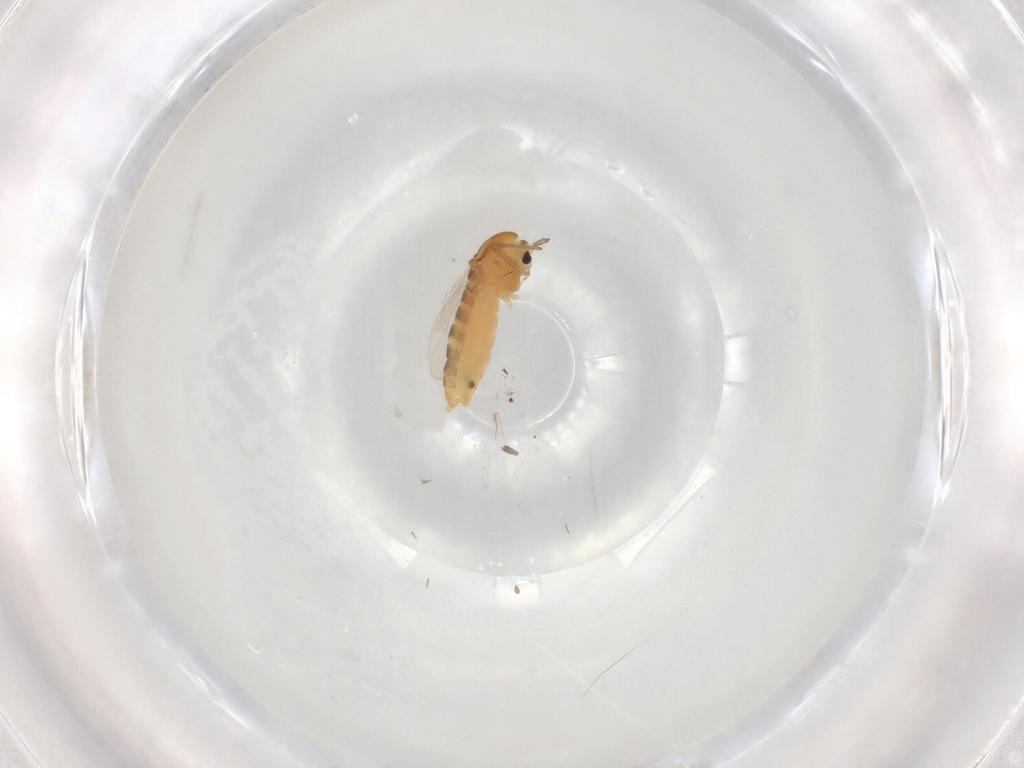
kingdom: Animalia
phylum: Arthropoda
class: Insecta
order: Diptera
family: Chironomidae
